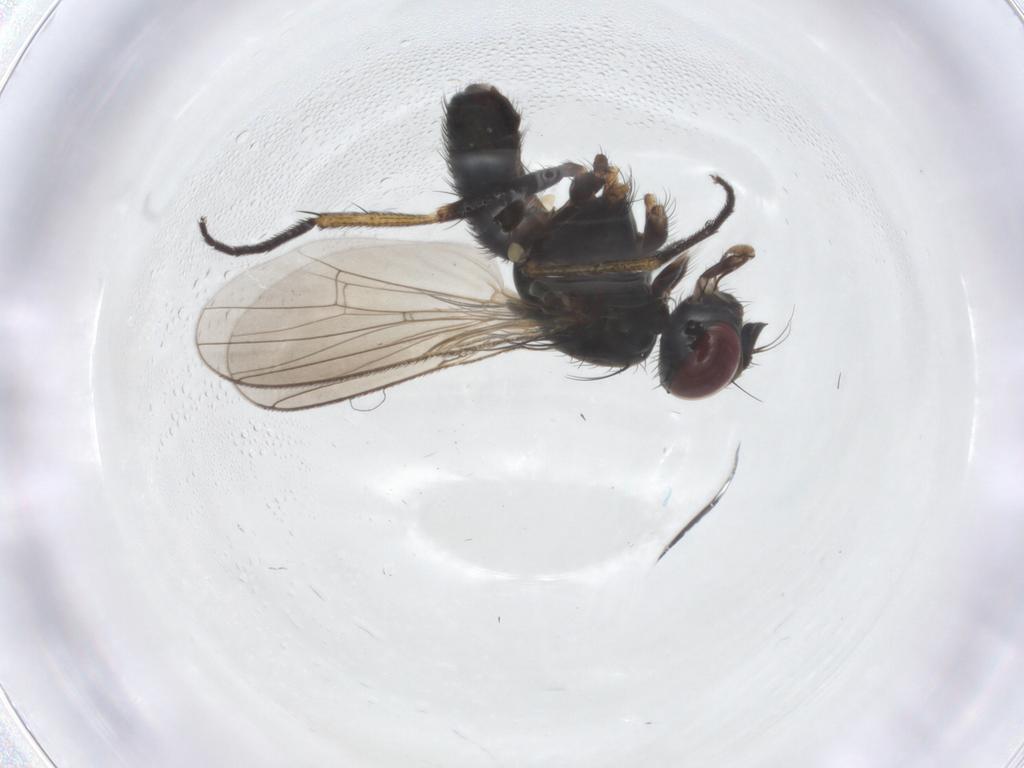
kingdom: Animalia
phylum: Arthropoda
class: Insecta
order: Diptera
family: Muscidae
